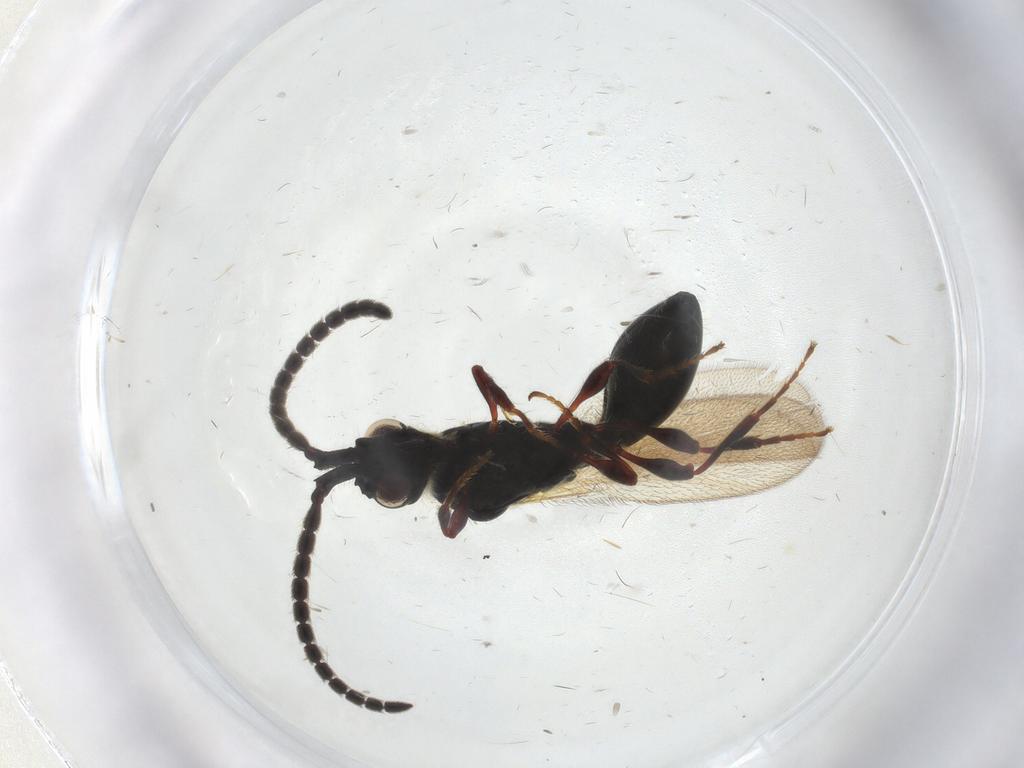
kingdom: Animalia
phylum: Arthropoda
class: Insecta
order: Hymenoptera
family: Diapriidae
